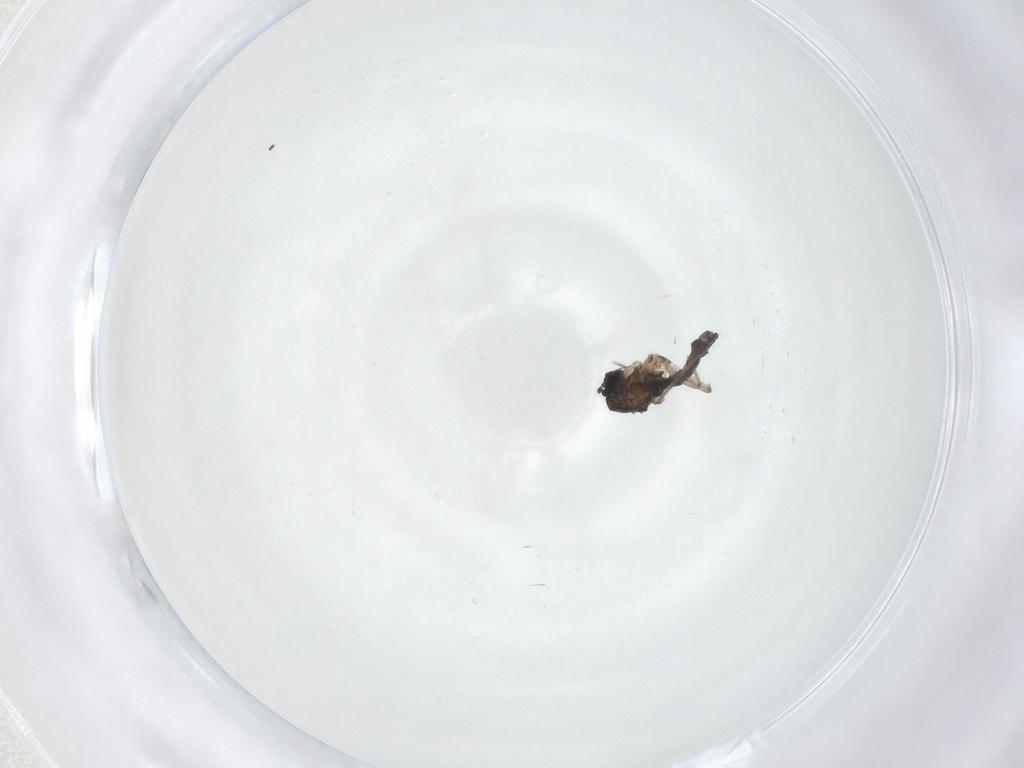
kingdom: Animalia
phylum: Arthropoda
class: Insecta
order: Diptera
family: Sciaridae
